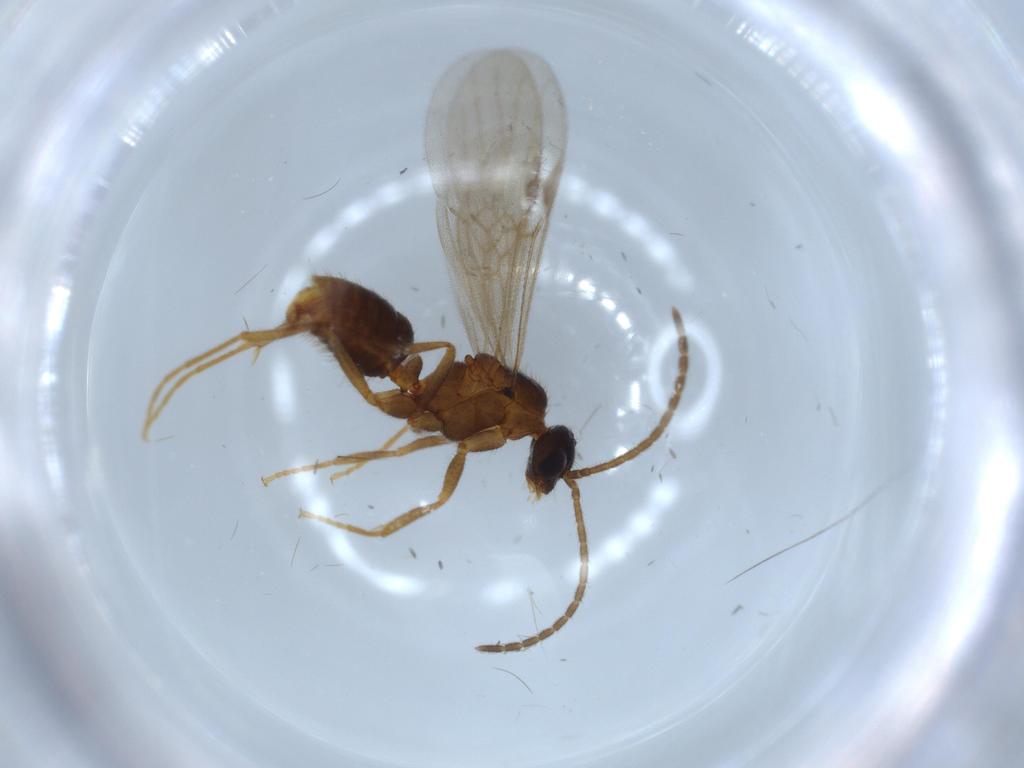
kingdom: Animalia
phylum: Arthropoda
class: Insecta
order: Hymenoptera
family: Formicidae
